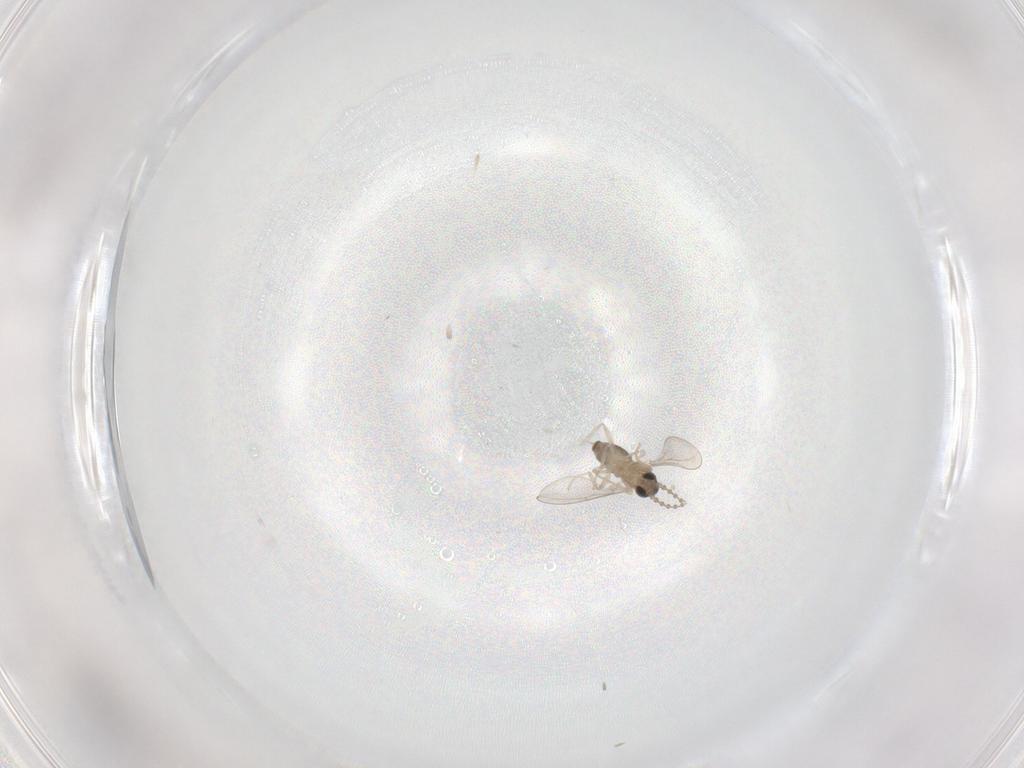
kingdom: Animalia
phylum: Arthropoda
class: Insecta
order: Diptera
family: Cecidomyiidae
